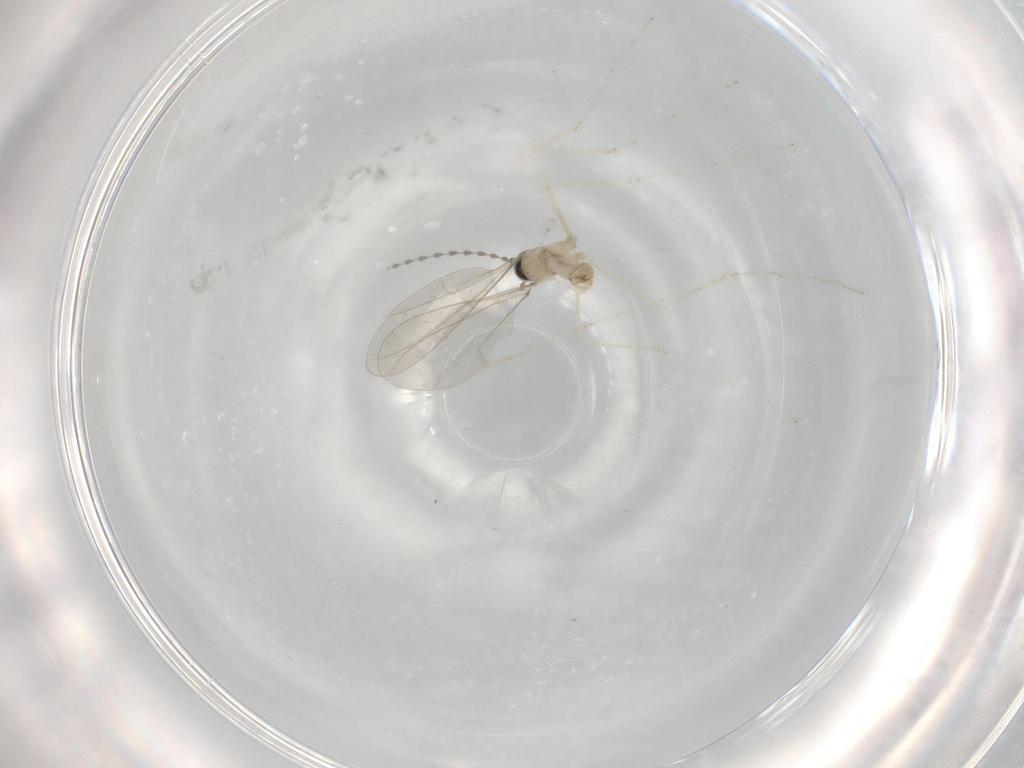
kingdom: Animalia
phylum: Arthropoda
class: Insecta
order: Diptera
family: Cecidomyiidae
